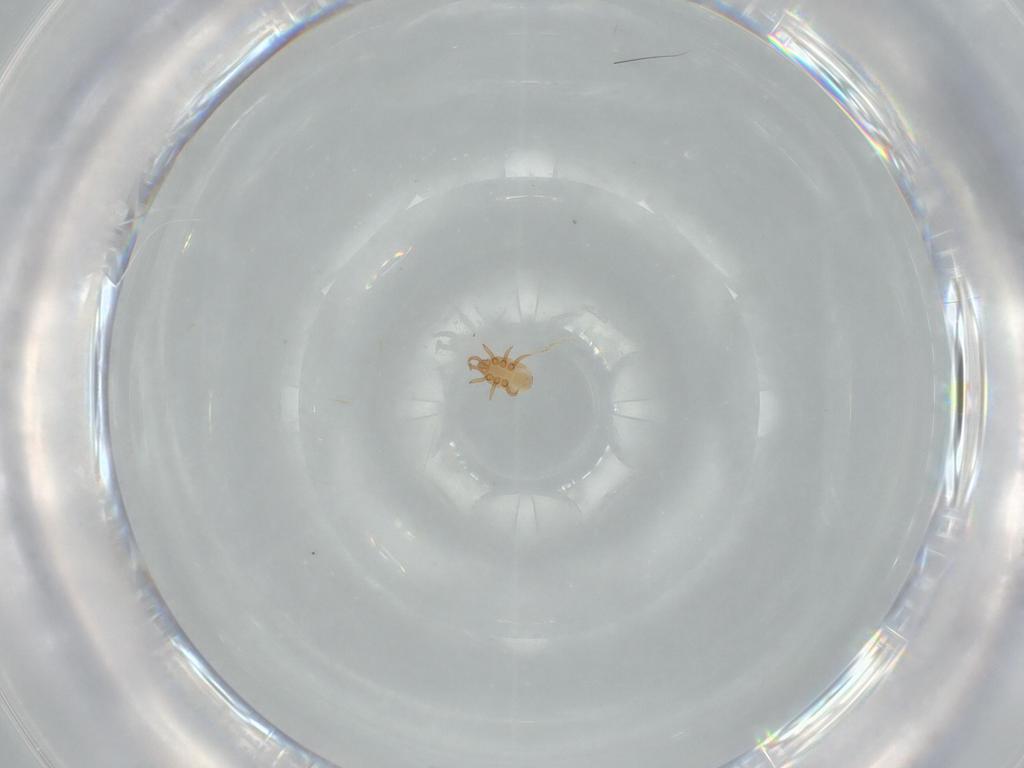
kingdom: Animalia
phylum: Arthropoda
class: Arachnida
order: Mesostigmata
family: Dinychidae
